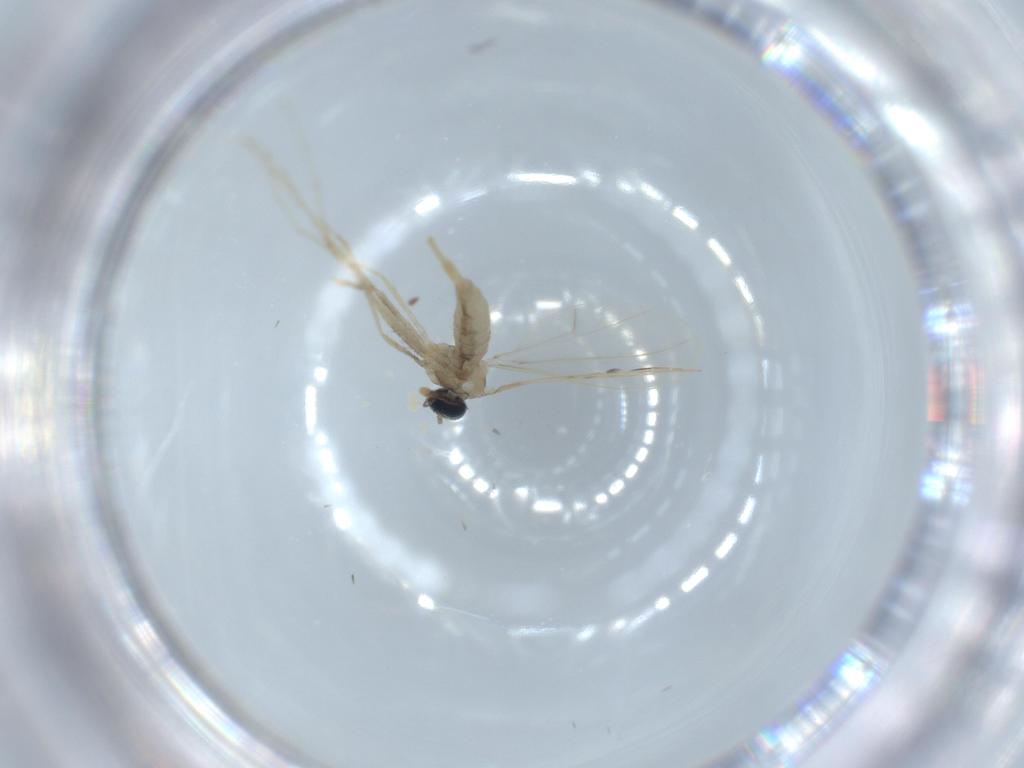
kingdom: Animalia
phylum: Arthropoda
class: Insecta
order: Diptera
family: Cecidomyiidae
